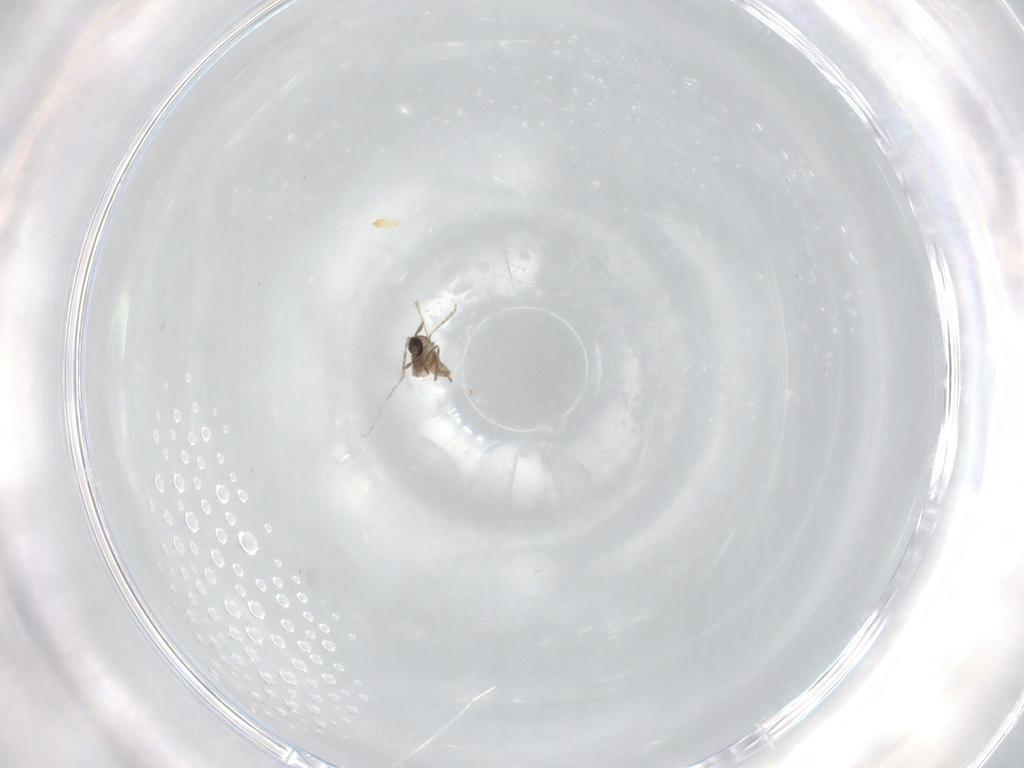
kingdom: Animalia
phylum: Arthropoda
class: Insecta
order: Diptera
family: Cecidomyiidae
